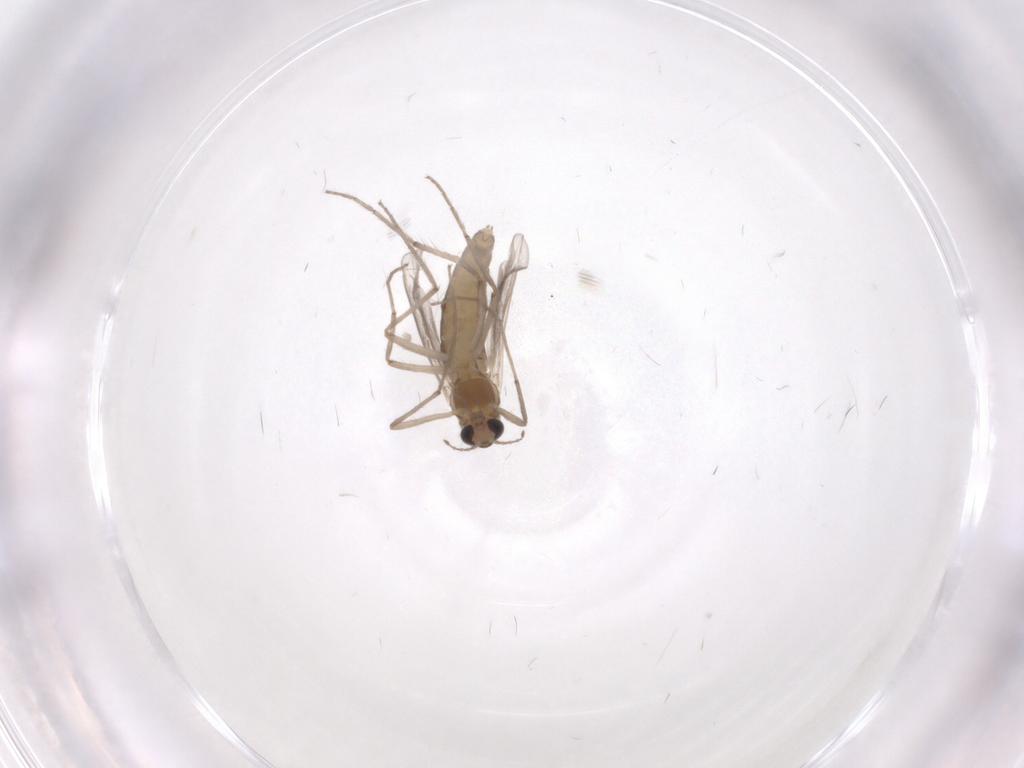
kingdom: Animalia
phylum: Arthropoda
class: Insecta
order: Diptera
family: Chironomidae
